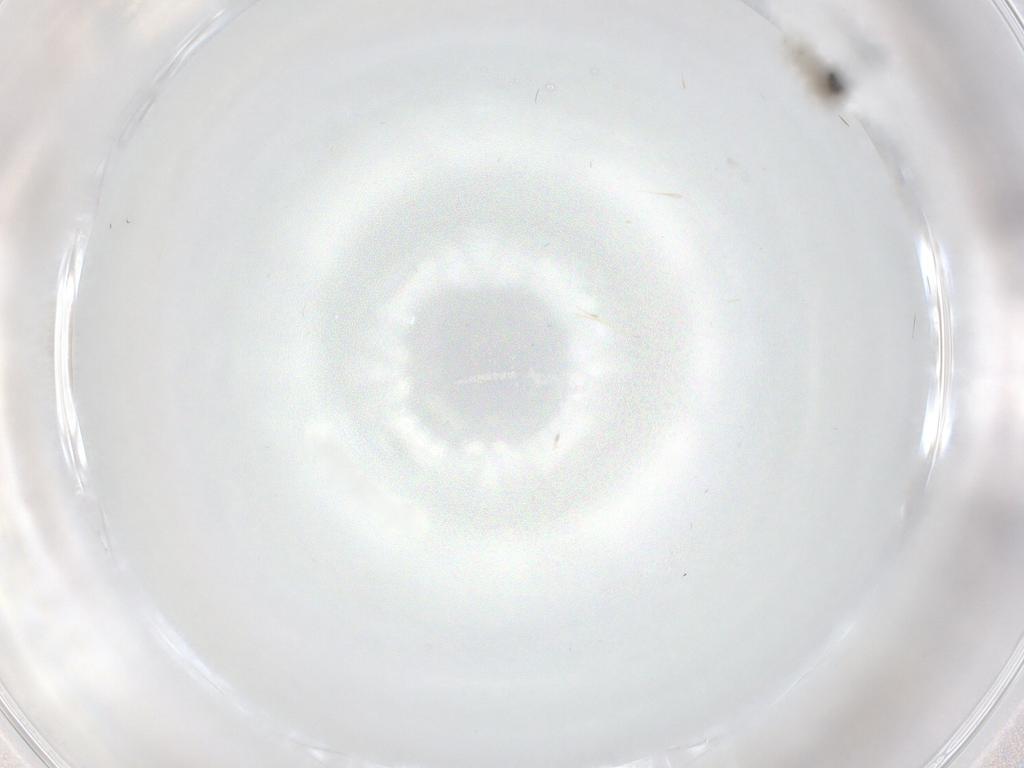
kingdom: Animalia
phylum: Arthropoda
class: Insecta
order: Diptera
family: Cecidomyiidae
